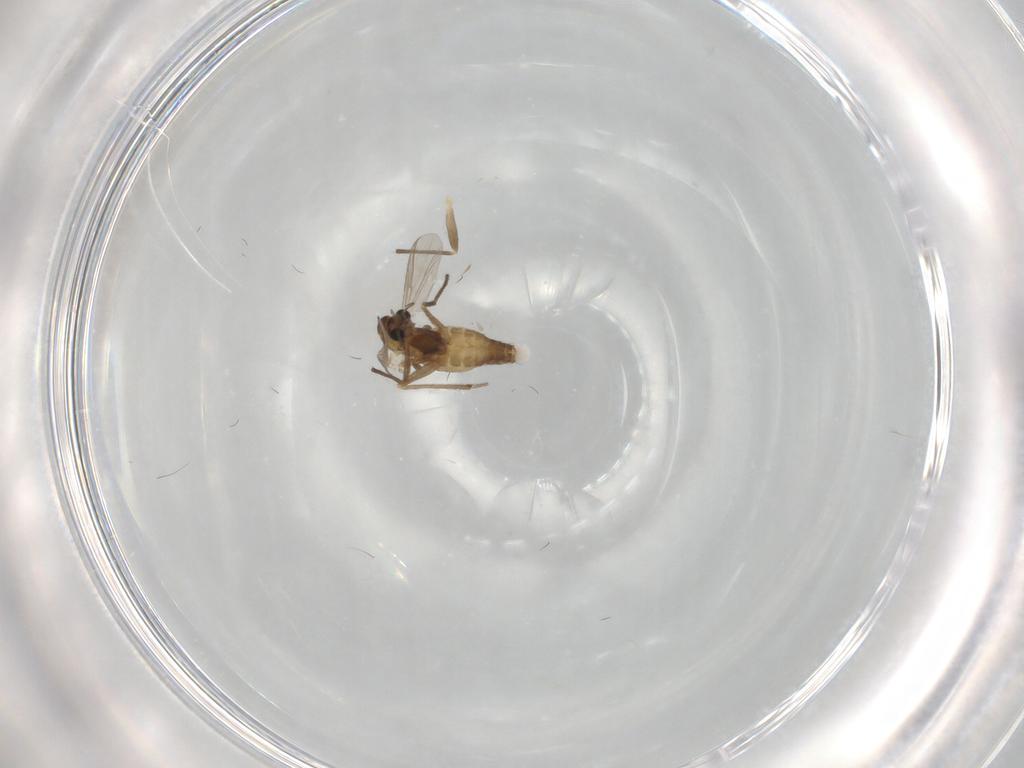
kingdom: Animalia
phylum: Arthropoda
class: Insecta
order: Diptera
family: Chironomidae
